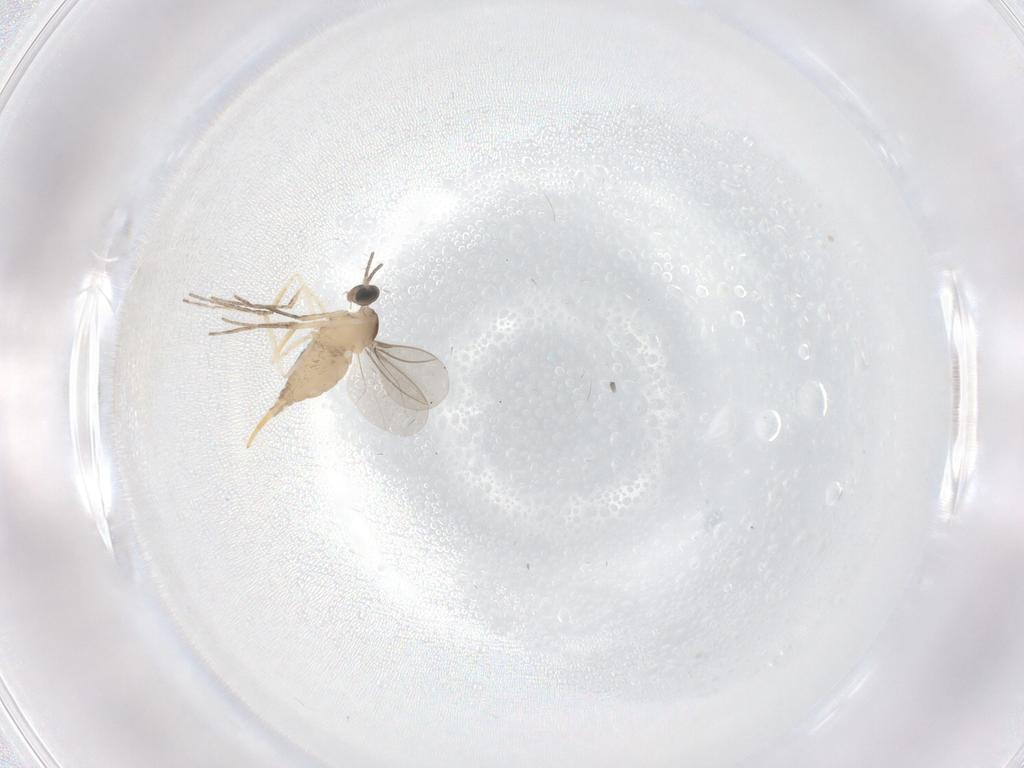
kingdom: Animalia
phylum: Arthropoda
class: Insecta
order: Diptera
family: Cecidomyiidae
